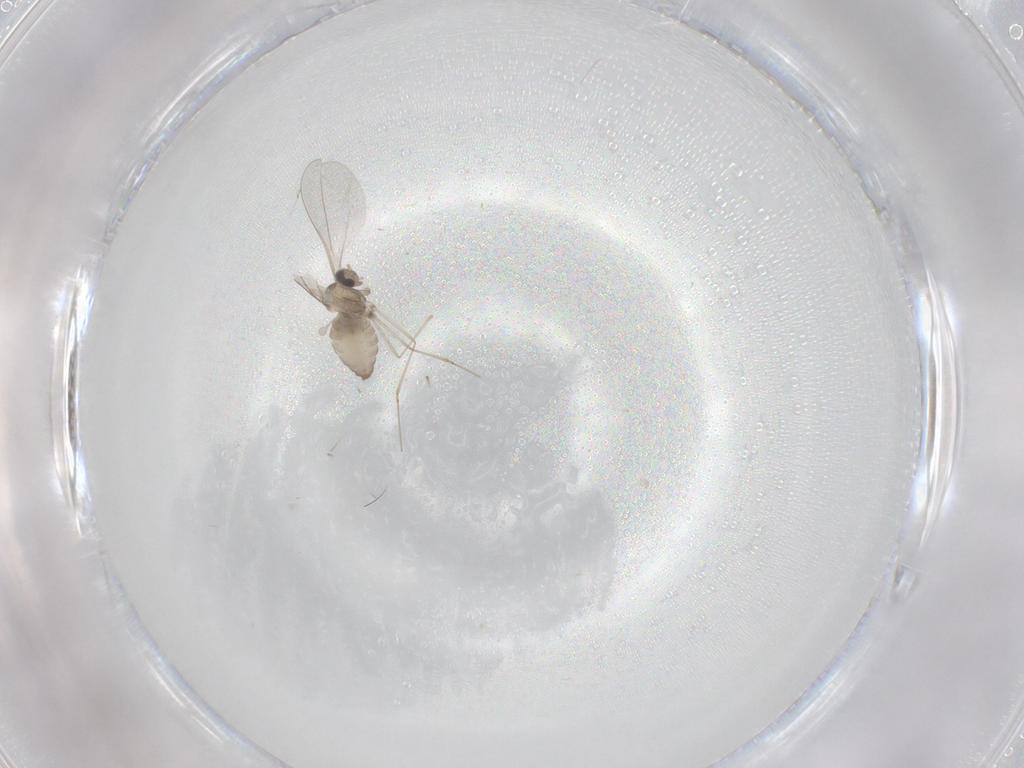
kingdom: Animalia
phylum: Arthropoda
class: Insecta
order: Diptera
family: Cecidomyiidae
